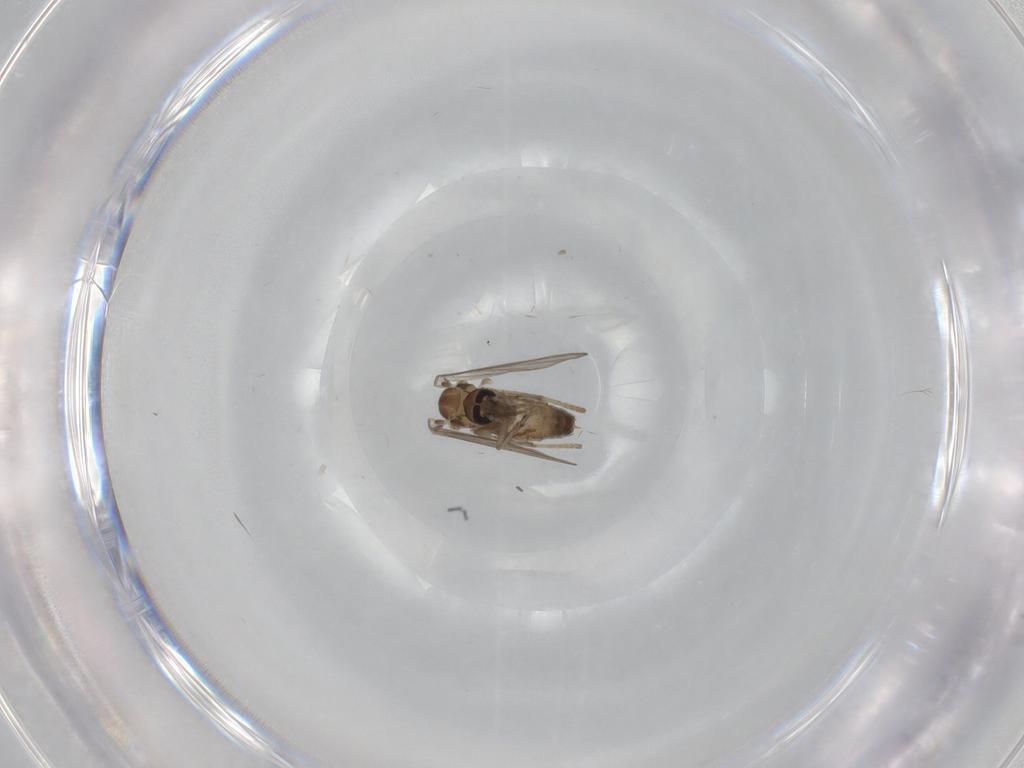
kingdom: Animalia
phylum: Arthropoda
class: Insecta
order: Diptera
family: Psychodidae
